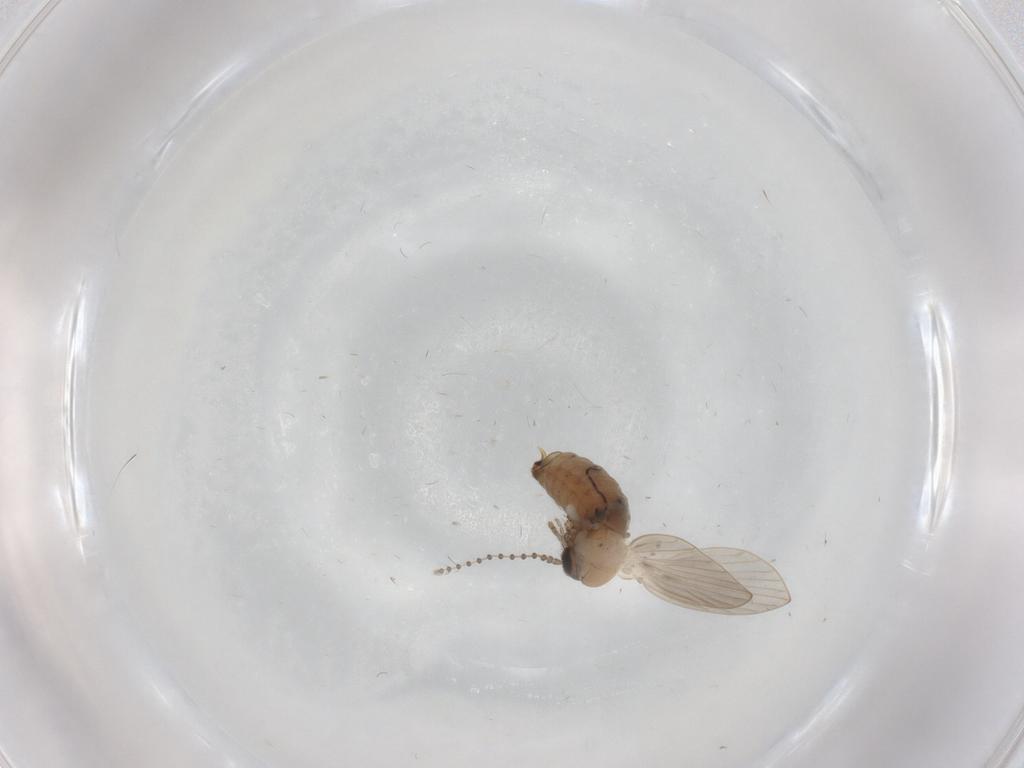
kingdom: Animalia
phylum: Arthropoda
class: Insecta
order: Diptera
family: Psychodidae
